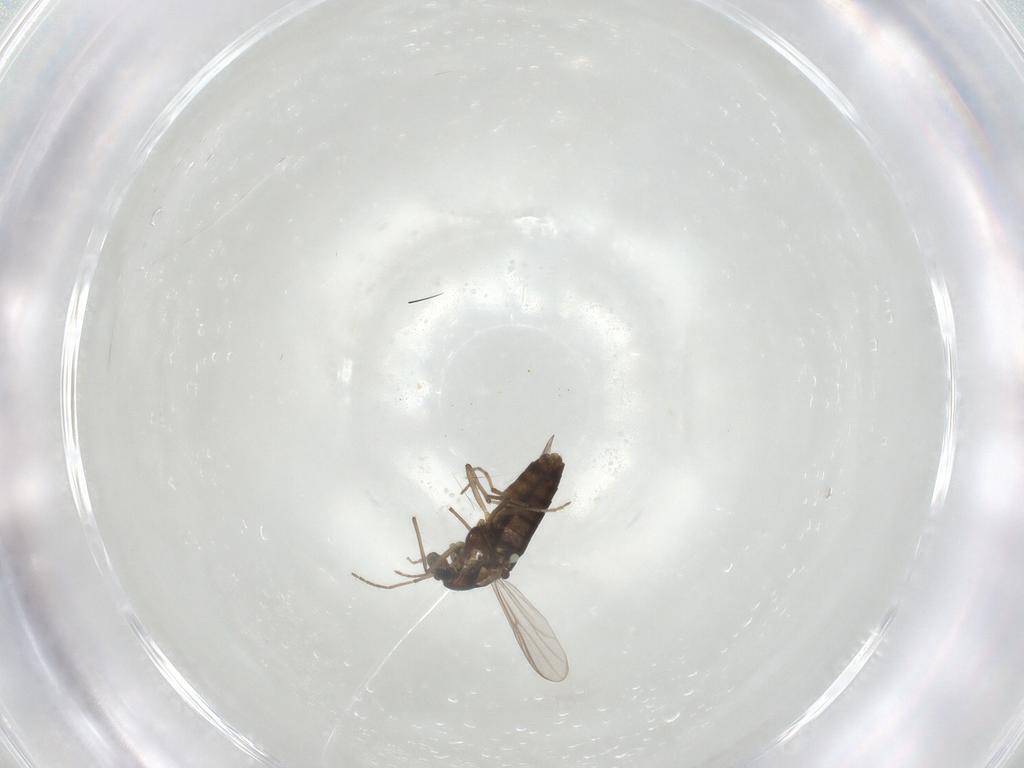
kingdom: Animalia
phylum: Arthropoda
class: Insecta
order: Diptera
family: Chironomidae
